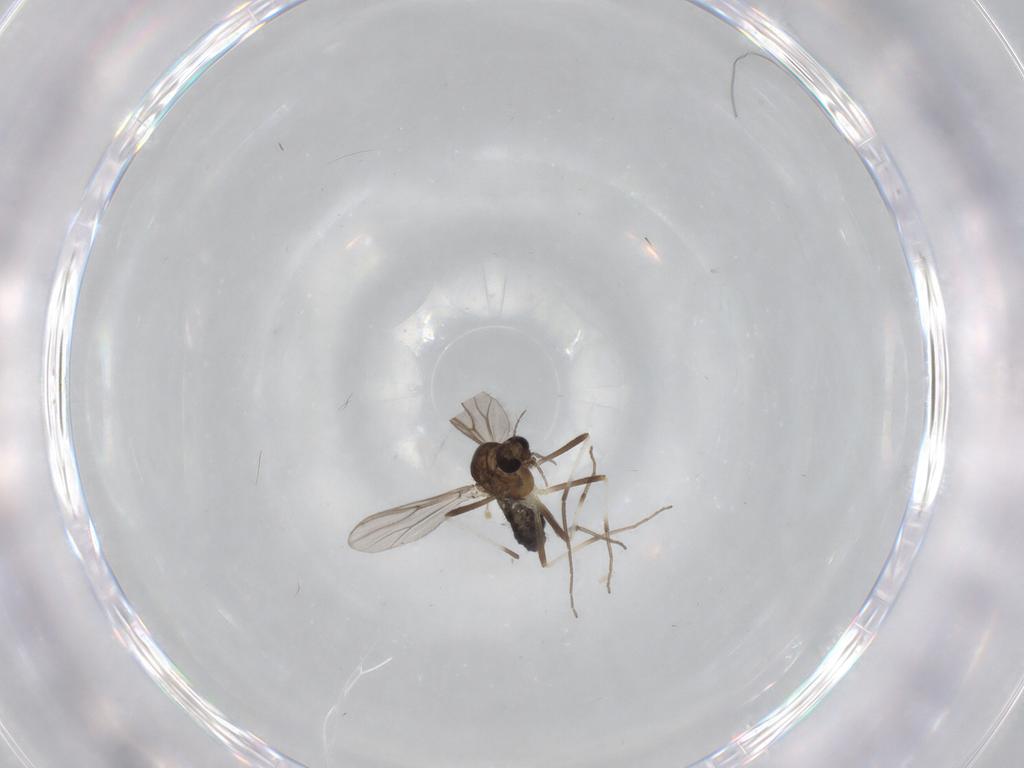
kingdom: Animalia
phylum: Arthropoda
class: Insecta
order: Diptera
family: Chironomidae
